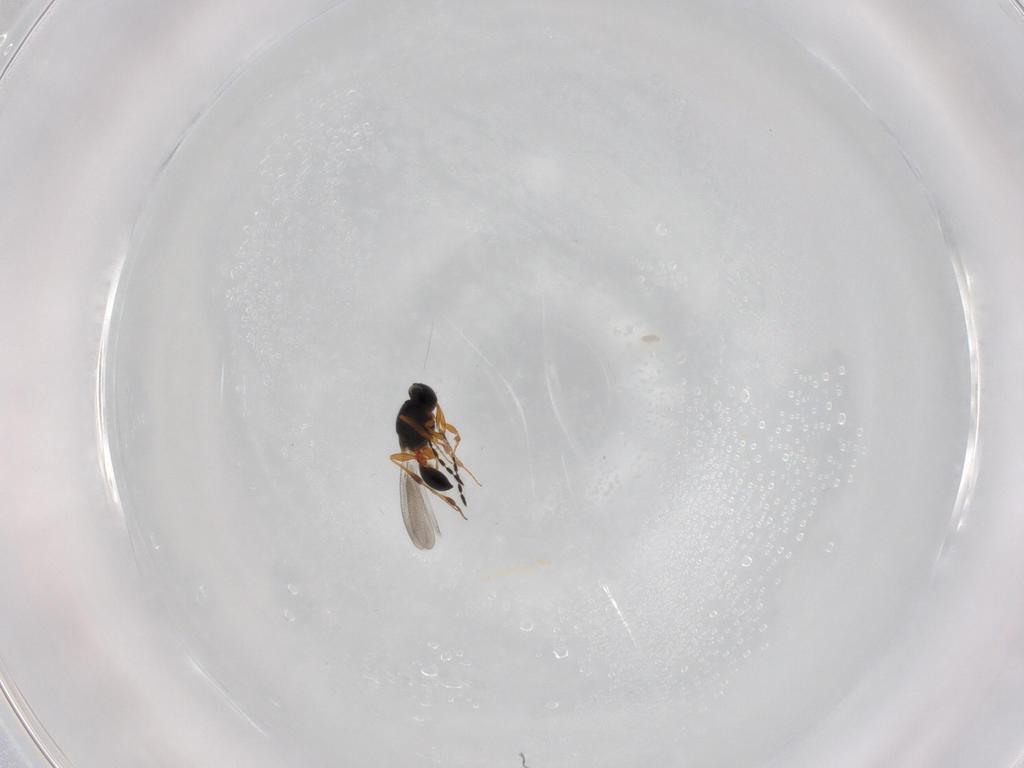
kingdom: Animalia
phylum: Arthropoda
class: Insecta
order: Hymenoptera
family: Platygastridae
